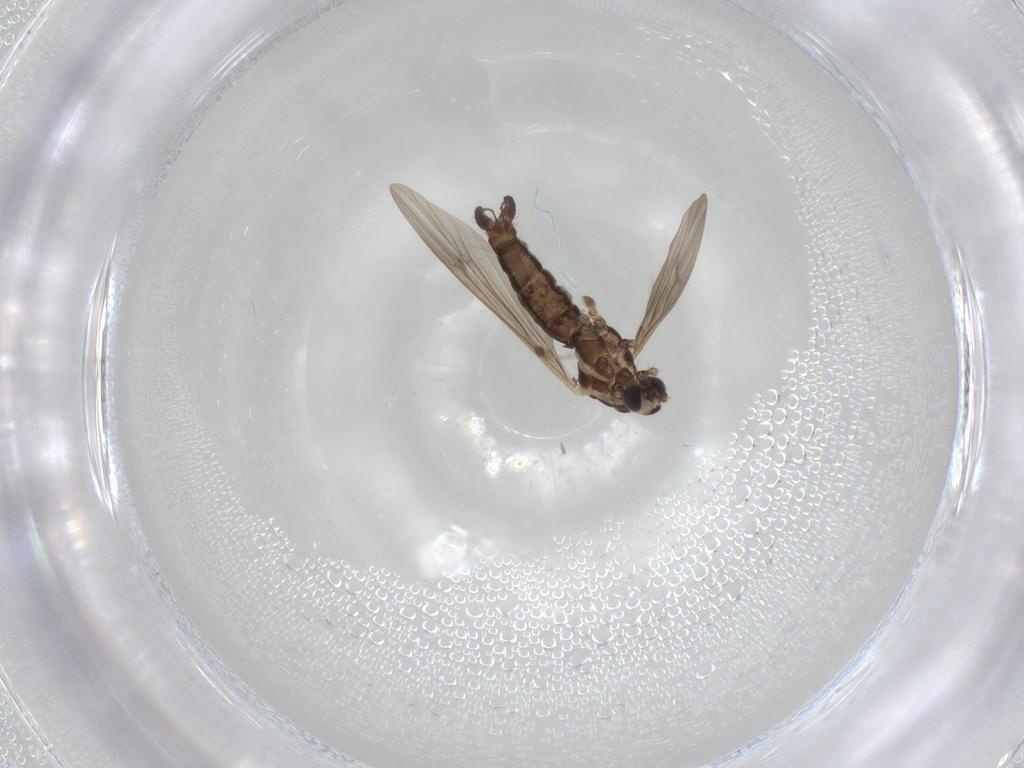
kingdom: Animalia
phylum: Arthropoda
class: Insecta
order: Diptera
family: Limoniidae
